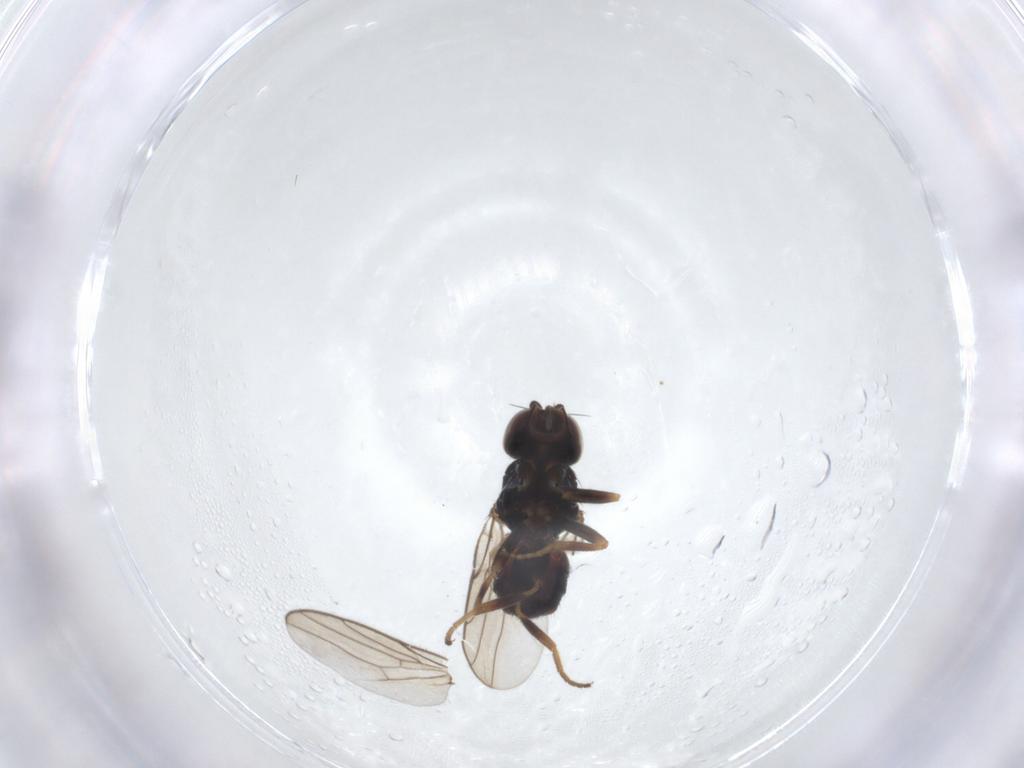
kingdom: Animalia
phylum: Arthropoda
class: Insecta
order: Diptera
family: Chloropidae
